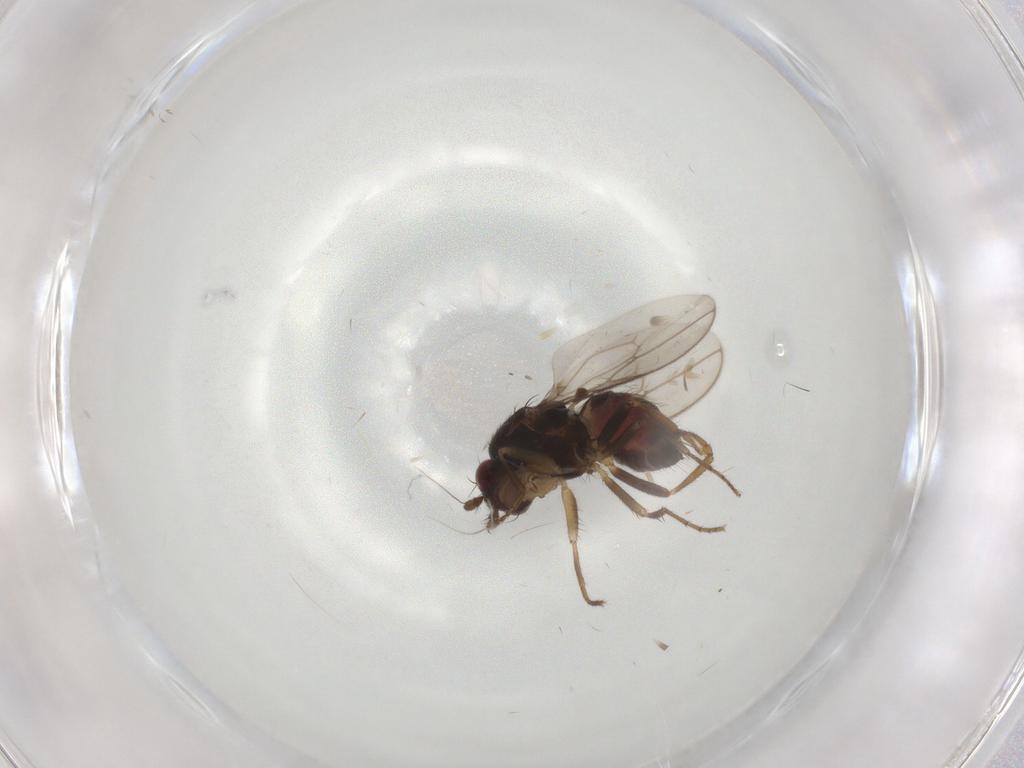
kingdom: Animalia
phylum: Arthropoda
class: Insecta
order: Diptera
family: Sphaeroceridae
